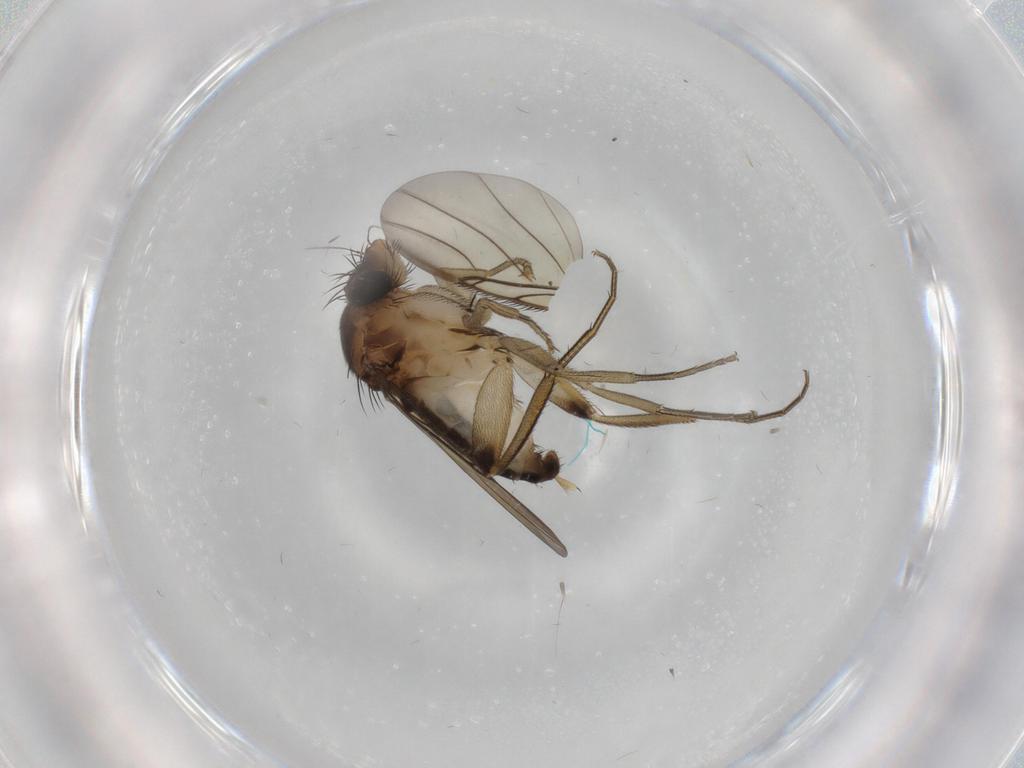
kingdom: Animalia
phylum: Arthropoda
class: Insecta
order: Diptera
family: Phoridae
